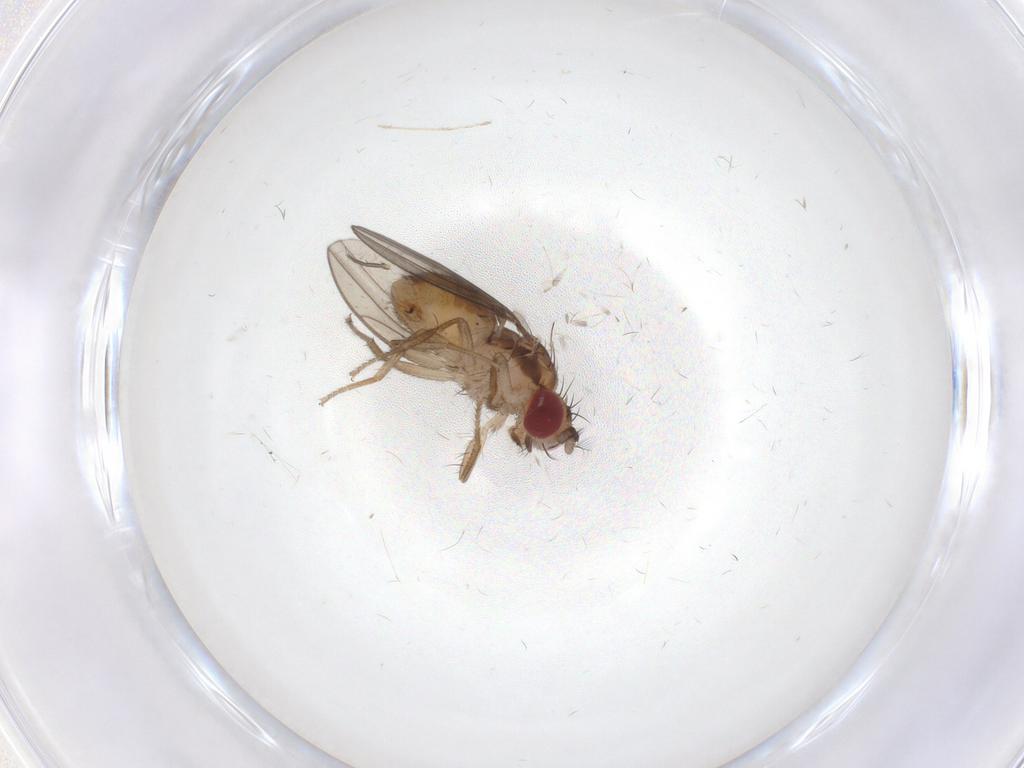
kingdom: Animalia
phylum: Arthropoda
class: Insecta
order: Diptera
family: Drosophilidae
